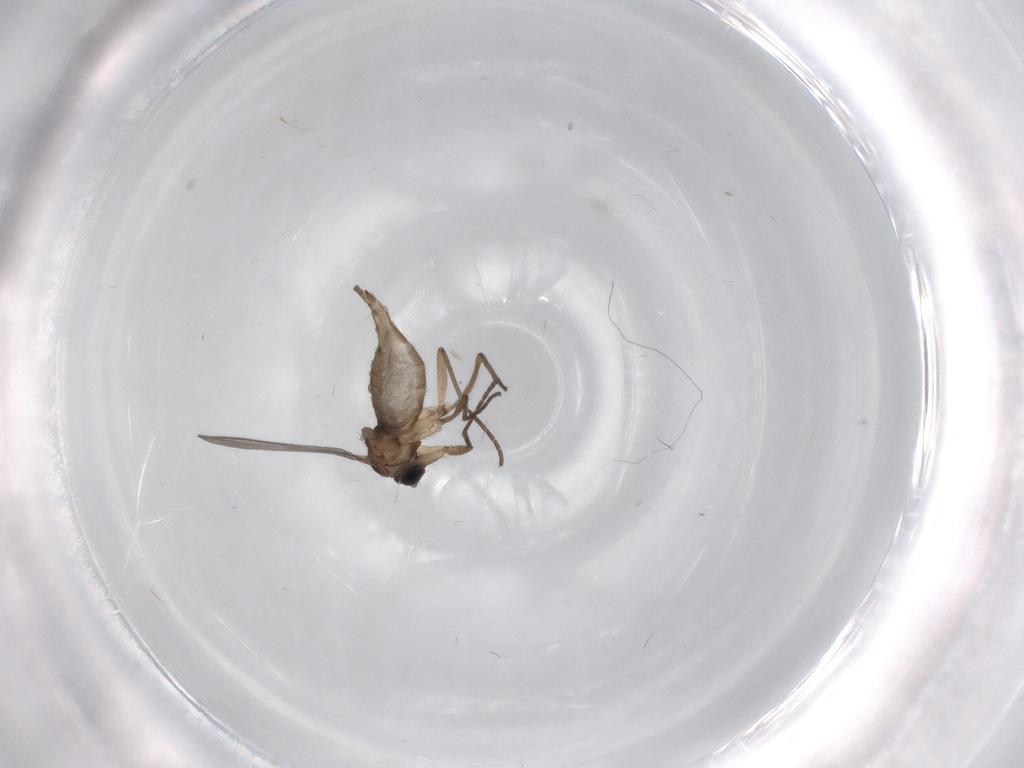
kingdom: Animalia
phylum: Arthropoda
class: Insecta
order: Diptera
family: Sciaridae
